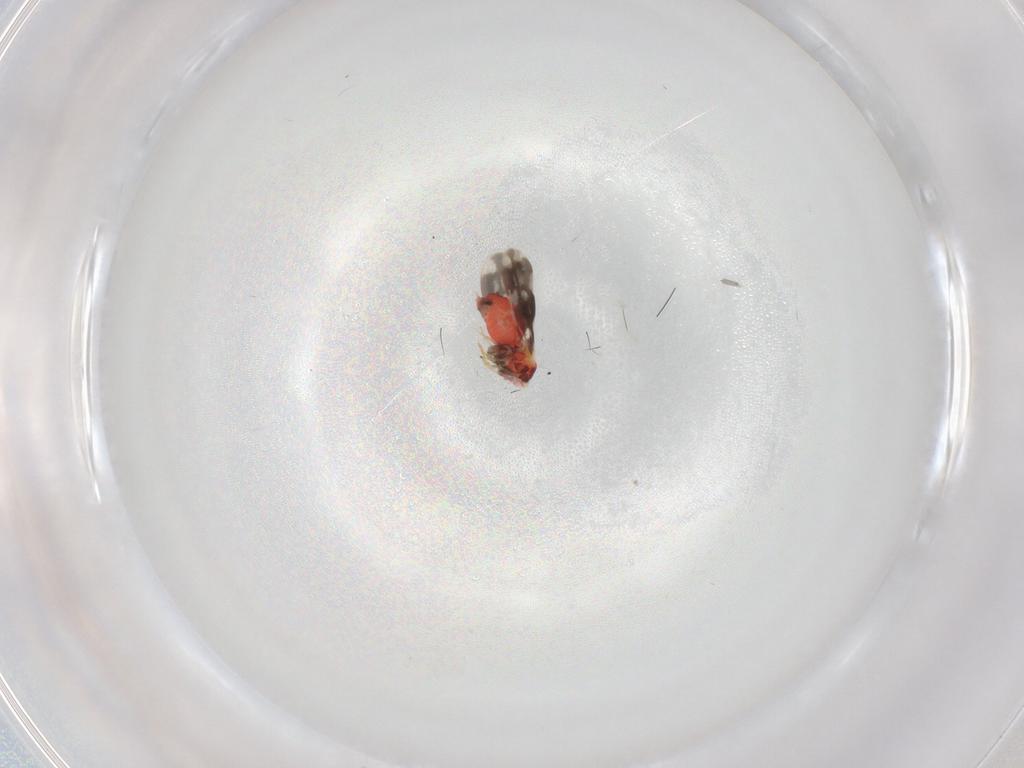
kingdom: Animalia
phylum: Arthropoda
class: Insecta
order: Hemiptera
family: Aleyrodidae
